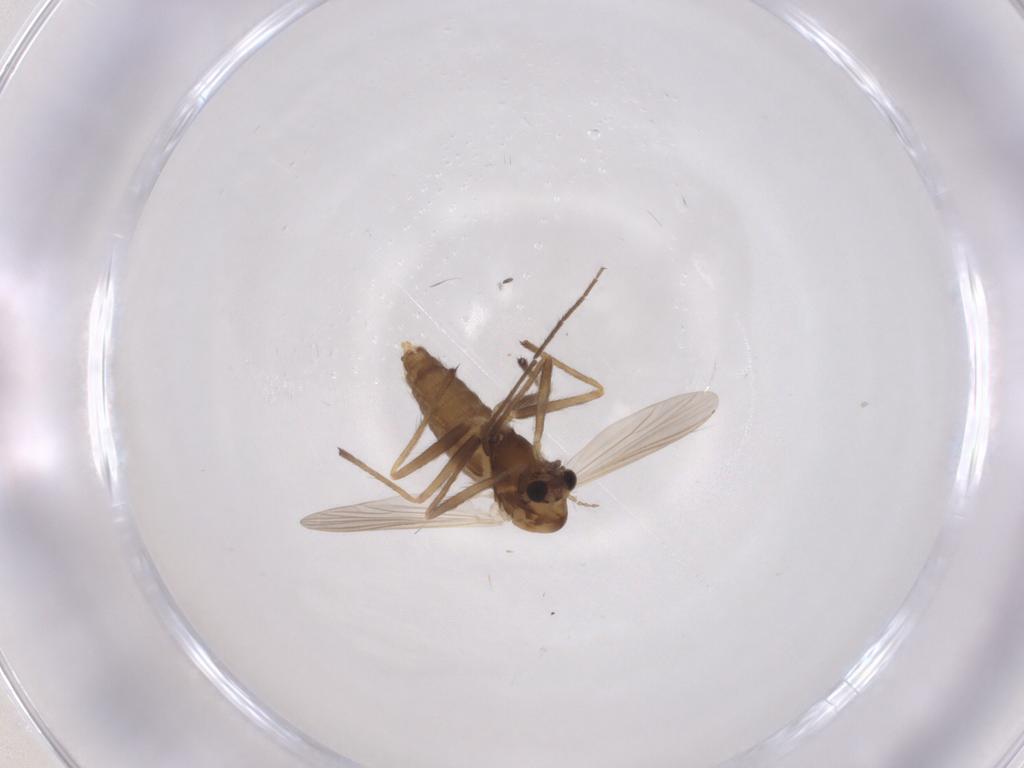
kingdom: Animalia
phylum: Arthropoda
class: Insecta
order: Diptera
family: Chironomidae
